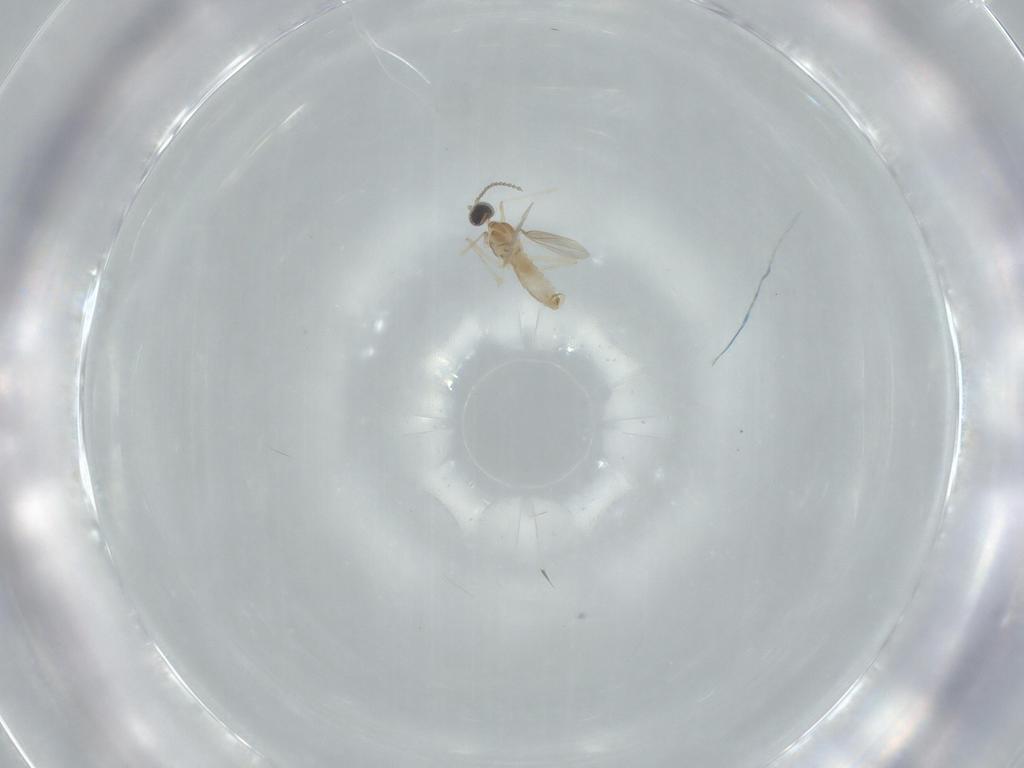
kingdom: Animalia
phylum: Arthropoda
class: Insecta
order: Diptera
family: Cecidomyiidae
